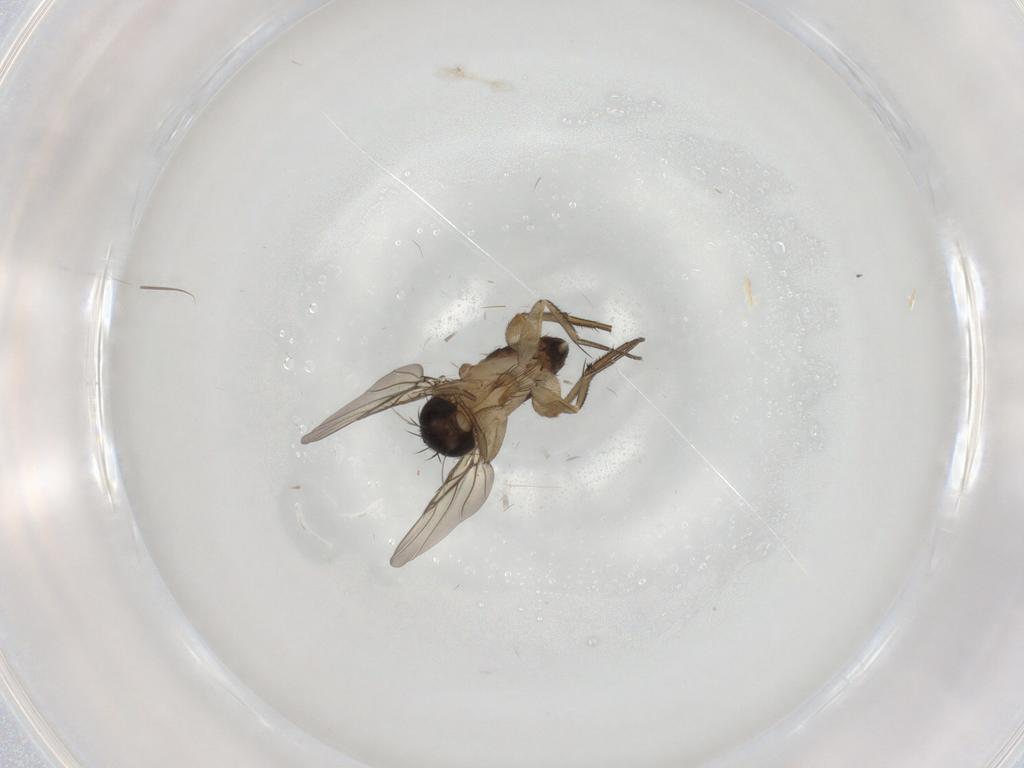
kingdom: Animalia
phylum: Arthropoda
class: Insecta
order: Diptera
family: Phoridae
